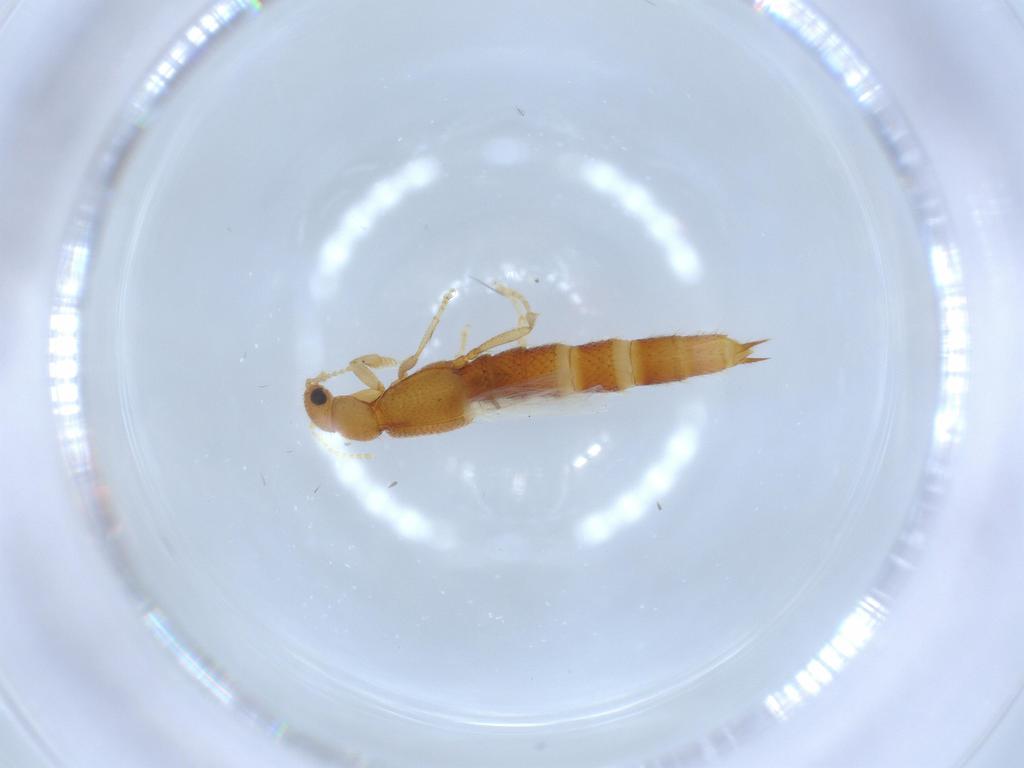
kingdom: Animalia
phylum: Arthropoda
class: Insecta
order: Coleoptera
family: Staphylinidae
